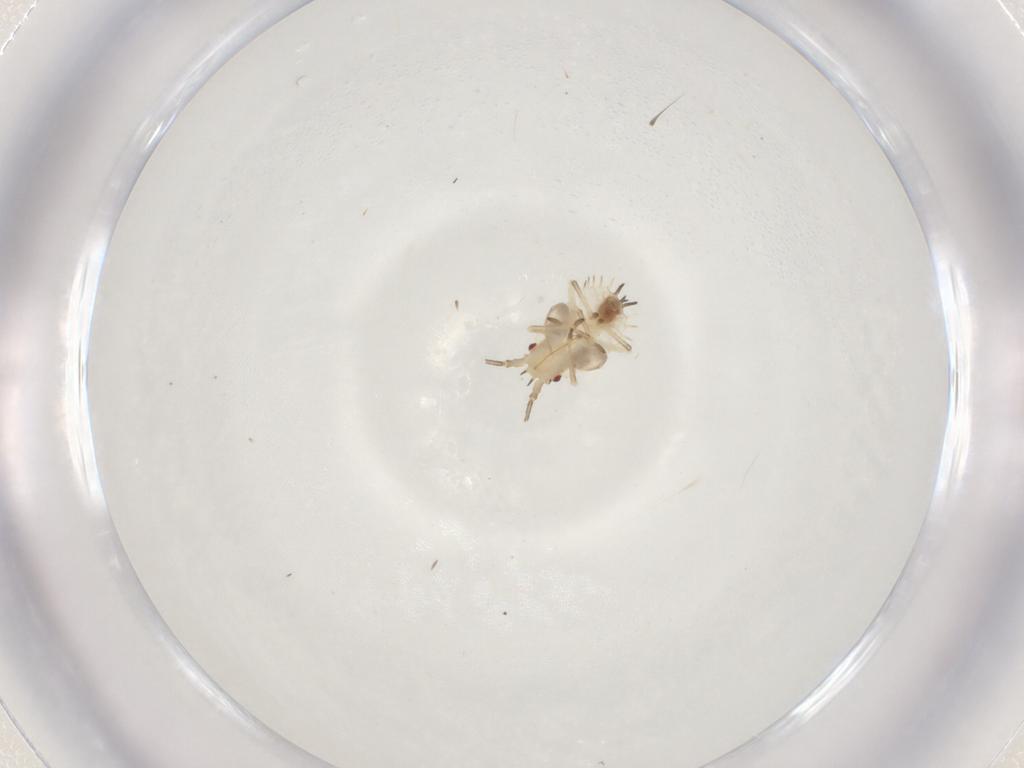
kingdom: Animalia
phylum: Arthropoda
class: Insecta
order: Hemiptera
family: Tingidae
